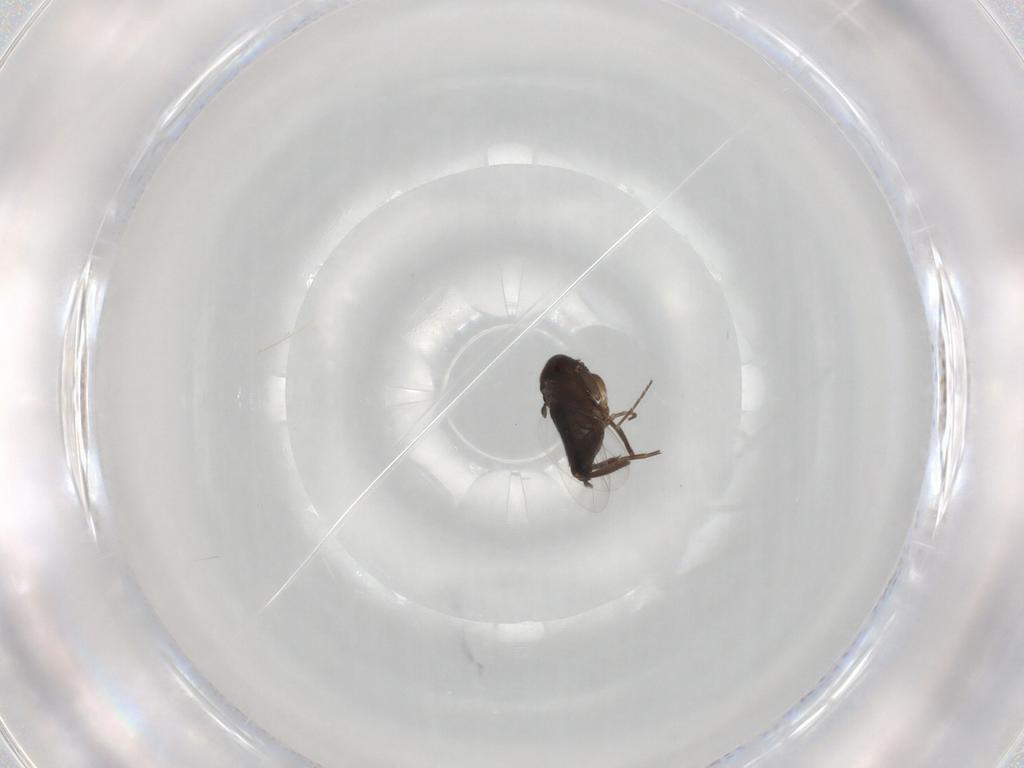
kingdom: Animalia
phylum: Arthropoda
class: Insecta
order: Diptera
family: Phoridae
